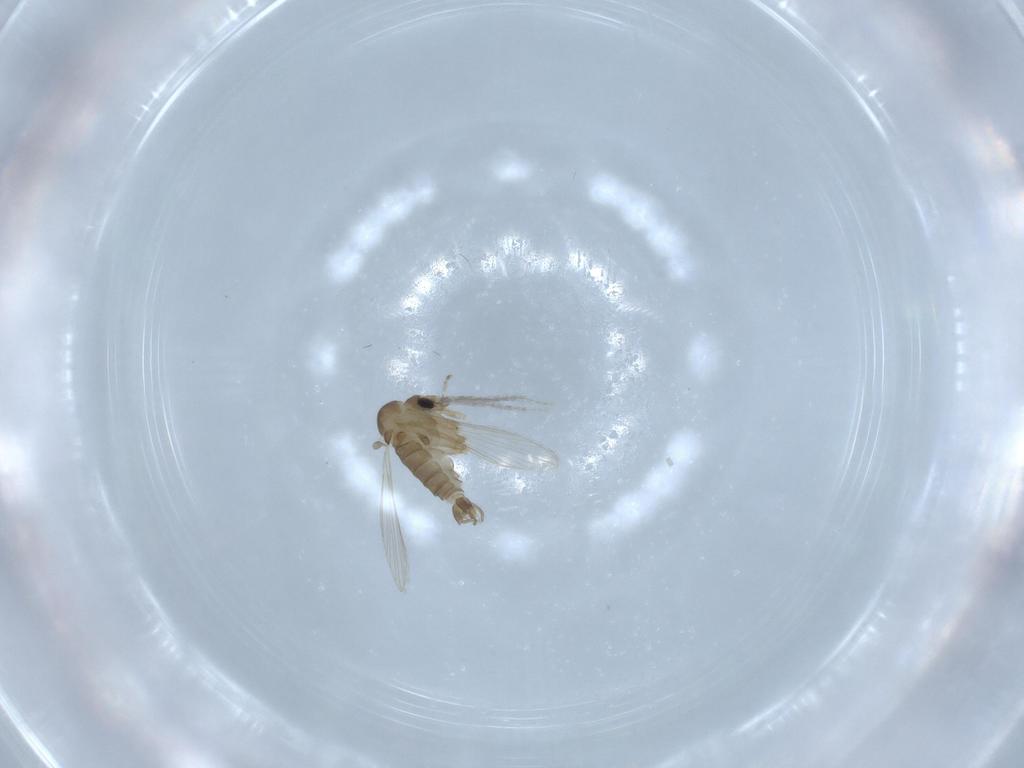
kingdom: Animalia
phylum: Arthropoda
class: Insecta
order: Diptera
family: Psychodidae
